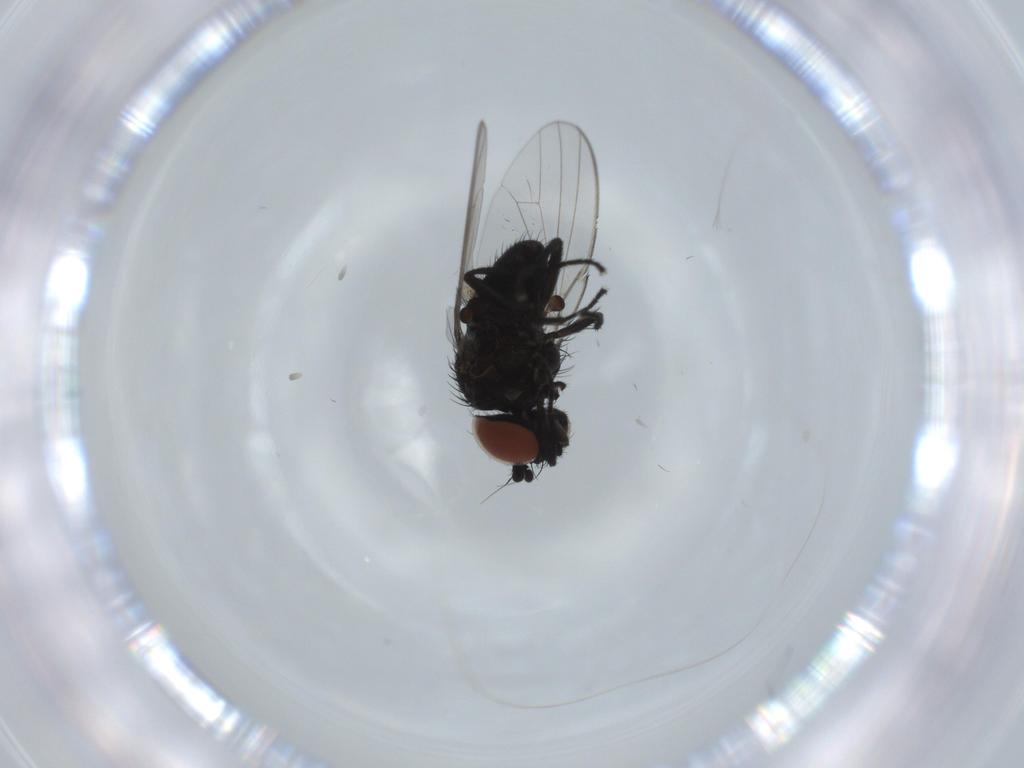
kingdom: Animalia
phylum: Arthropoda
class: Insecta
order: Diptera
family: Milichiidae
